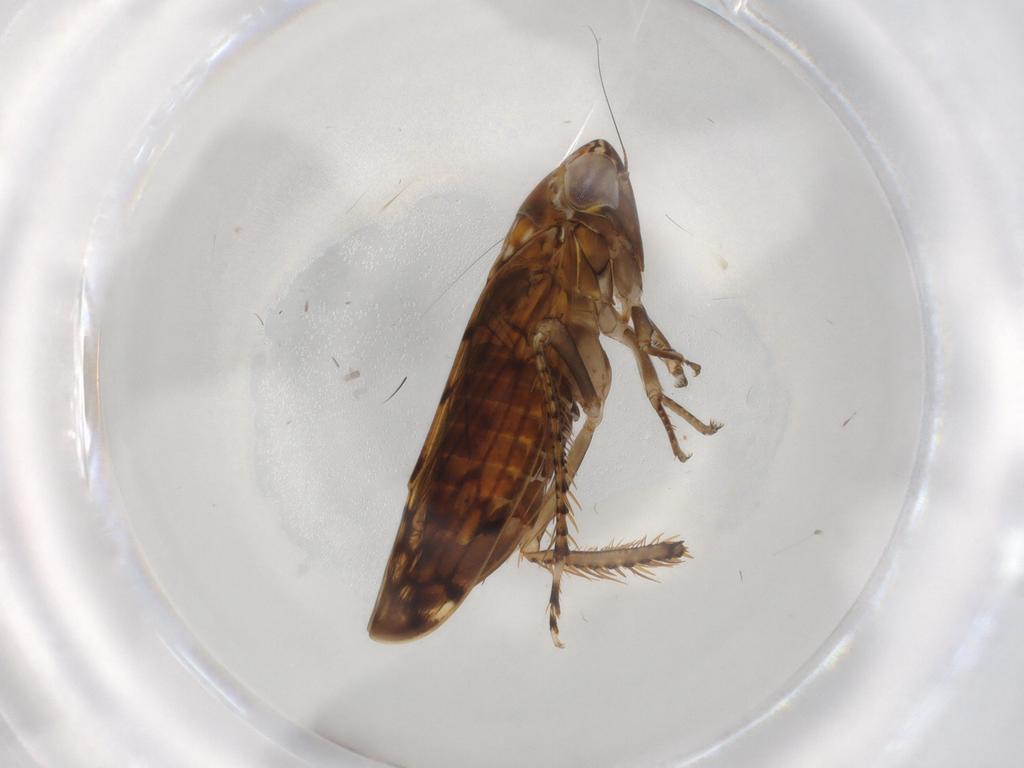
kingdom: Animalia
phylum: Arthropoda
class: Insecta
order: Hemiptera
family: Cicadellidae
